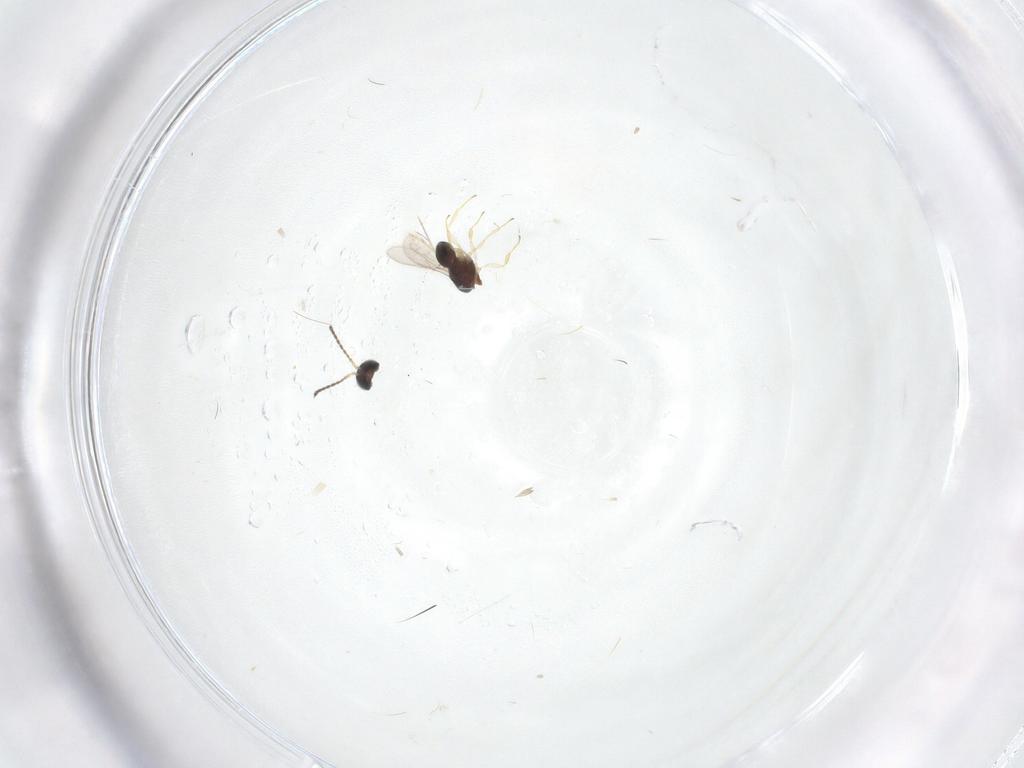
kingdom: Animalia
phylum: Arthropoda
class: Insecta
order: Hymenoptera
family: Scelionidae
